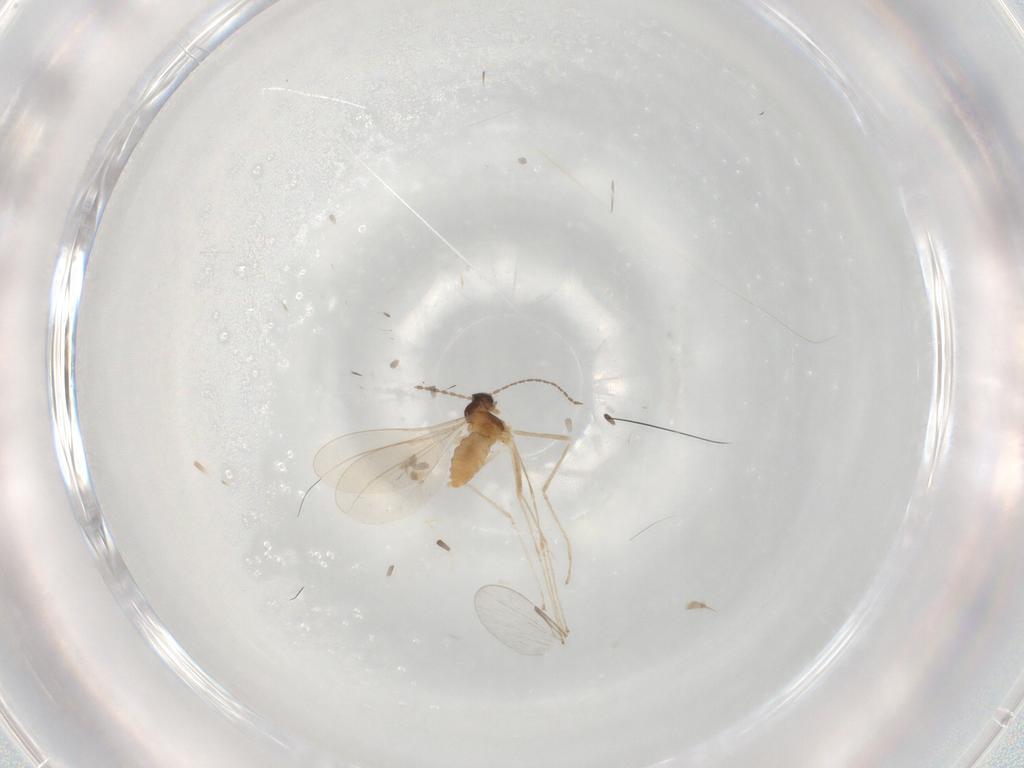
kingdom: Animalia
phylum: Arthropoda
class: Insecta
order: Diptera
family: Cecidomyiidae
